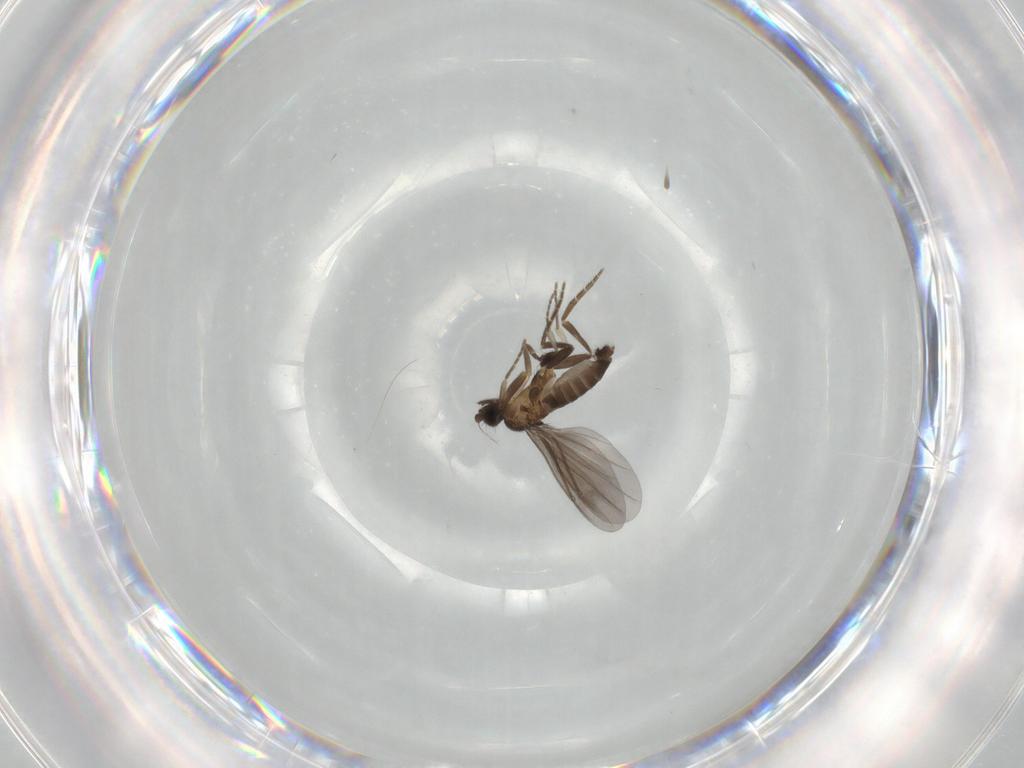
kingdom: Animalia
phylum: Arthropoda
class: Insecta
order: Diptera
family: Phoridae
